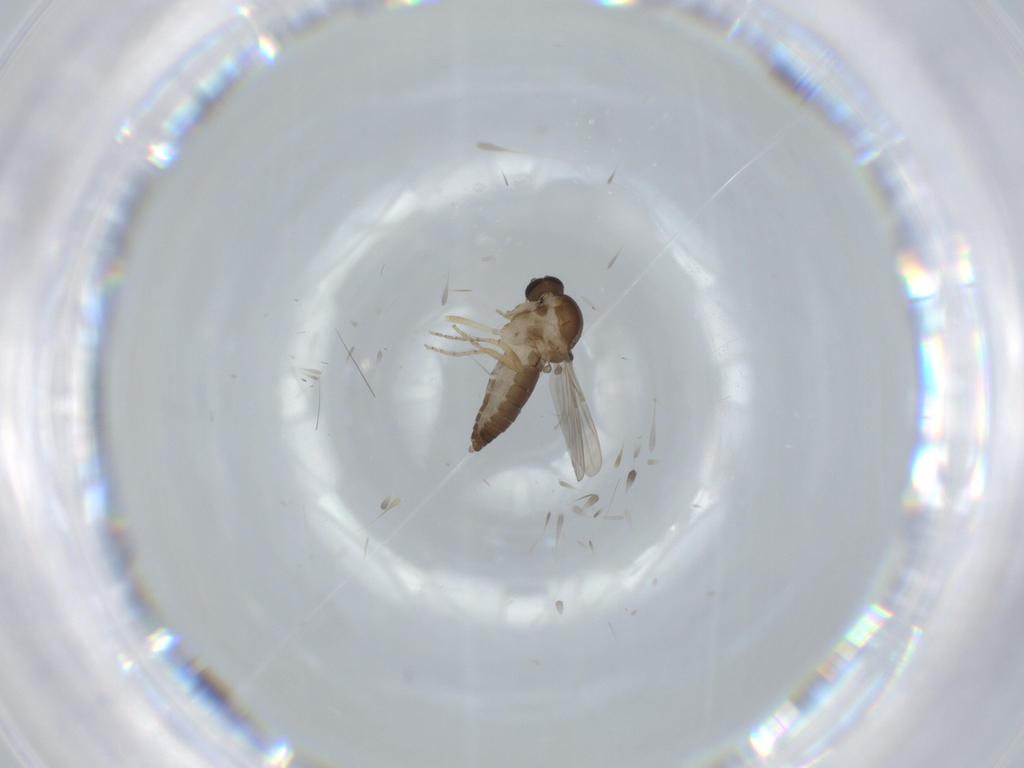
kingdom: Animalia
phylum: Arthropoda
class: Insecta
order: Diptera
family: Ceratopogonidae
